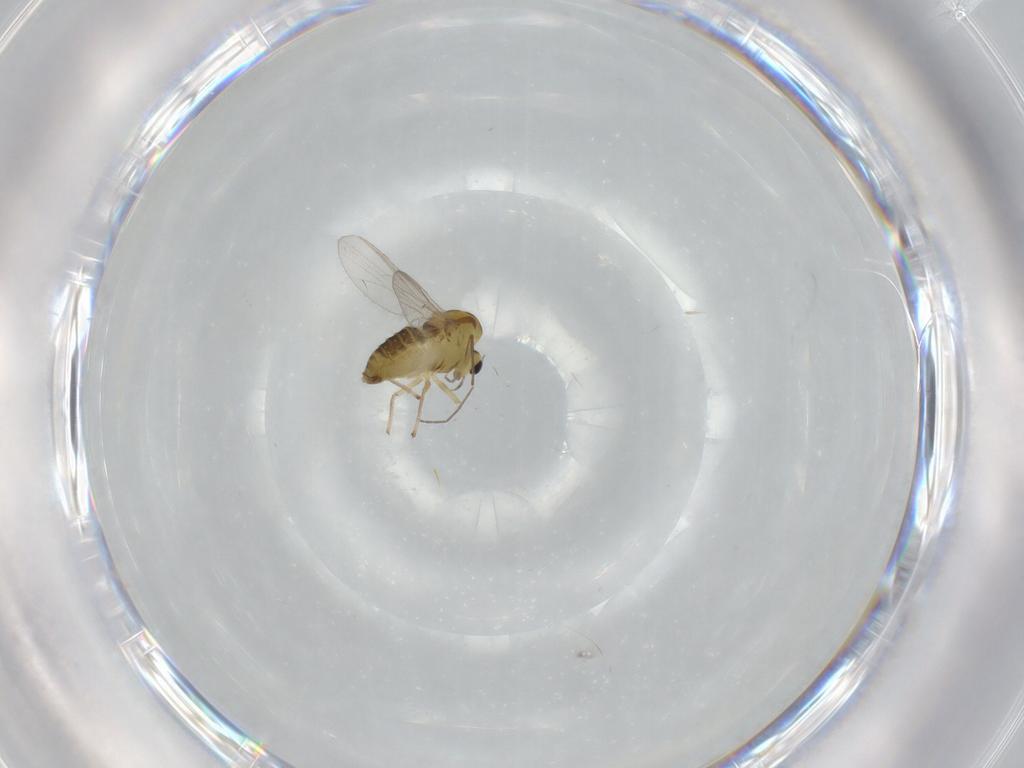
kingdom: Animalia
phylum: Arthropoda
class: Insecta
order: Diptera
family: Chironomidae
